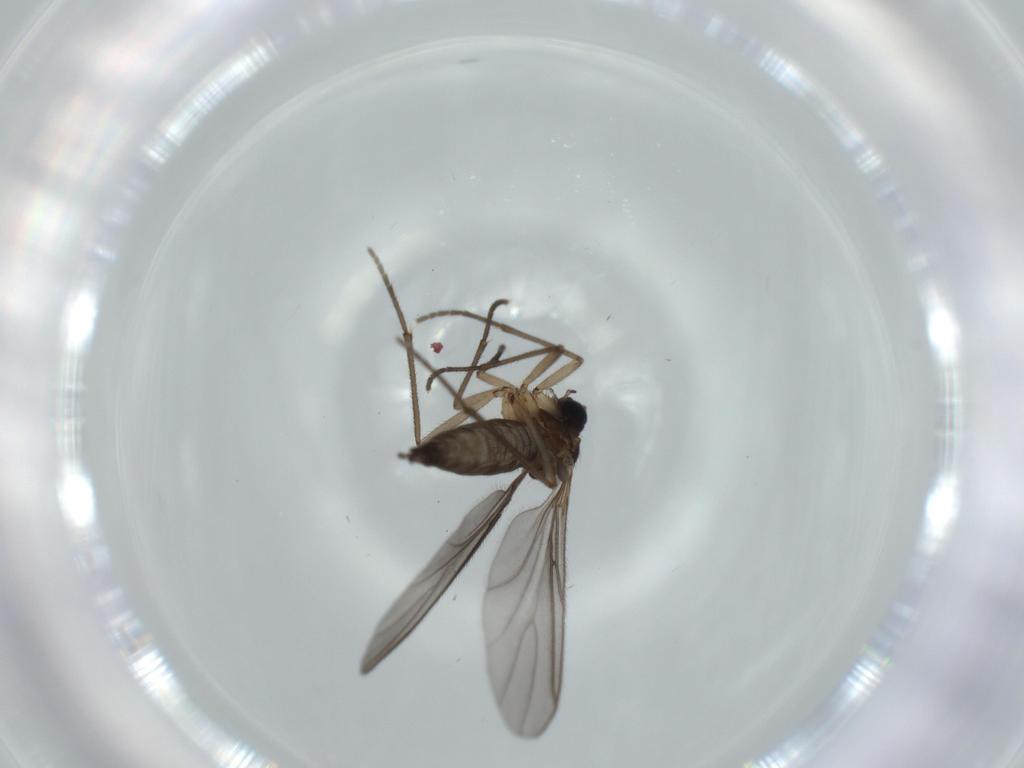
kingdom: Animalia
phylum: Arthropoda
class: Insecta
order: Diptera
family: Sciaridae
